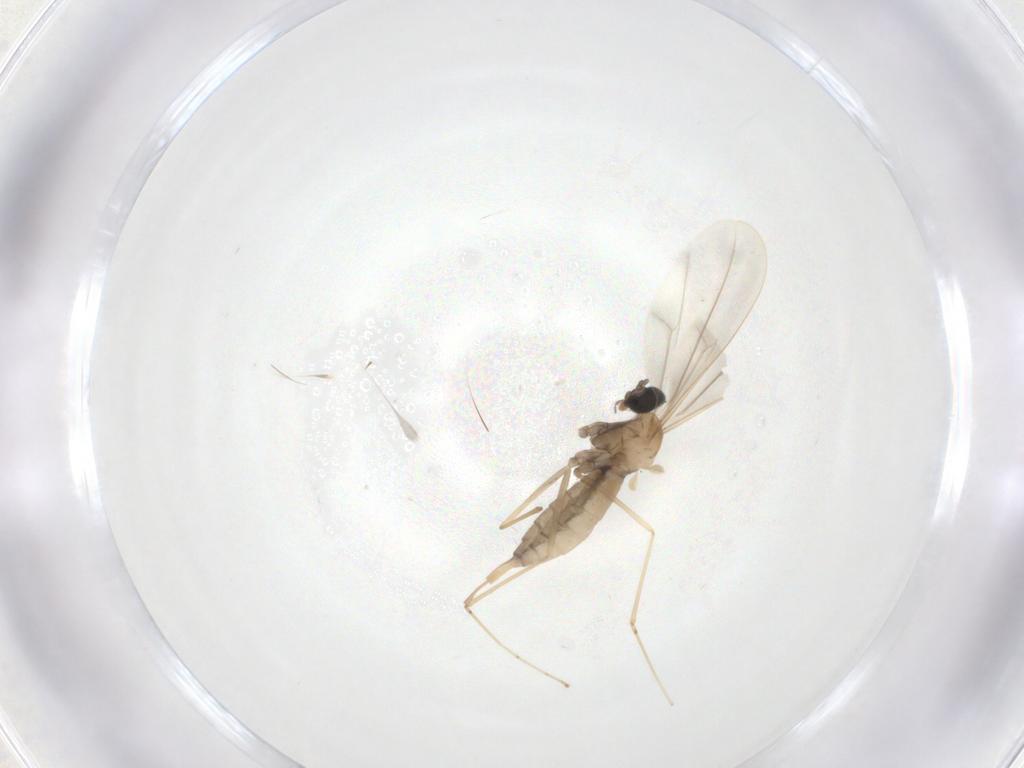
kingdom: Animalia
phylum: Arthropoda
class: Insecta
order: Diptera
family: Cecidomyiidae
